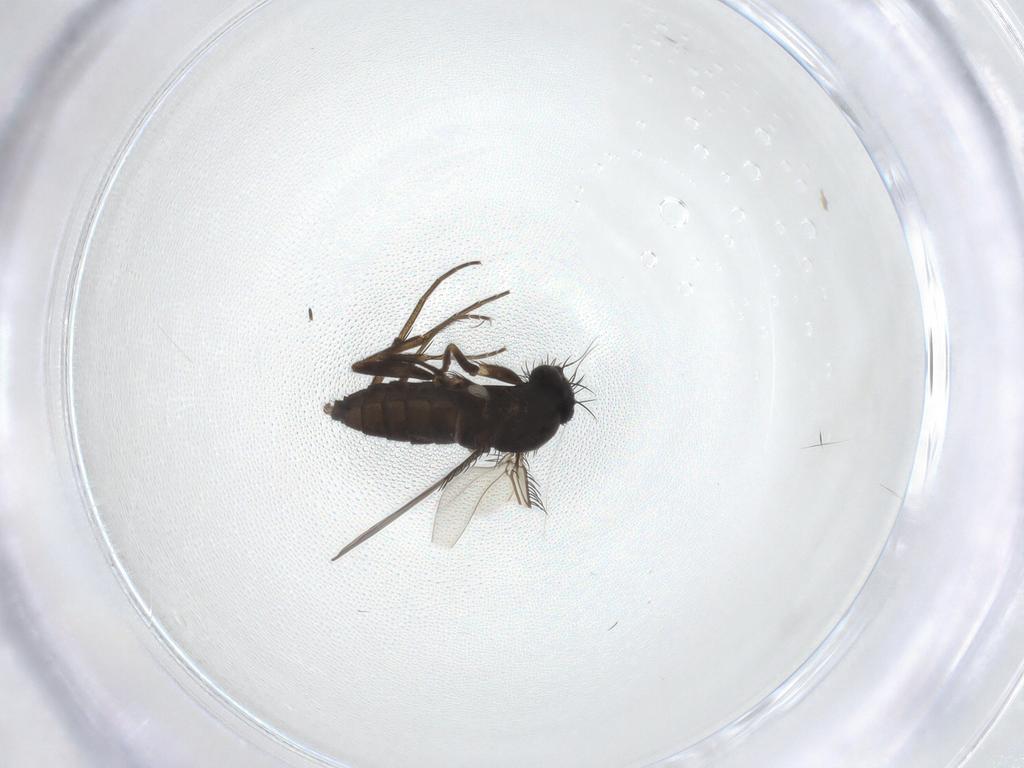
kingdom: Animalia
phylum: Arthropoda
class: Insecta
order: Diptera
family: Phoridae
